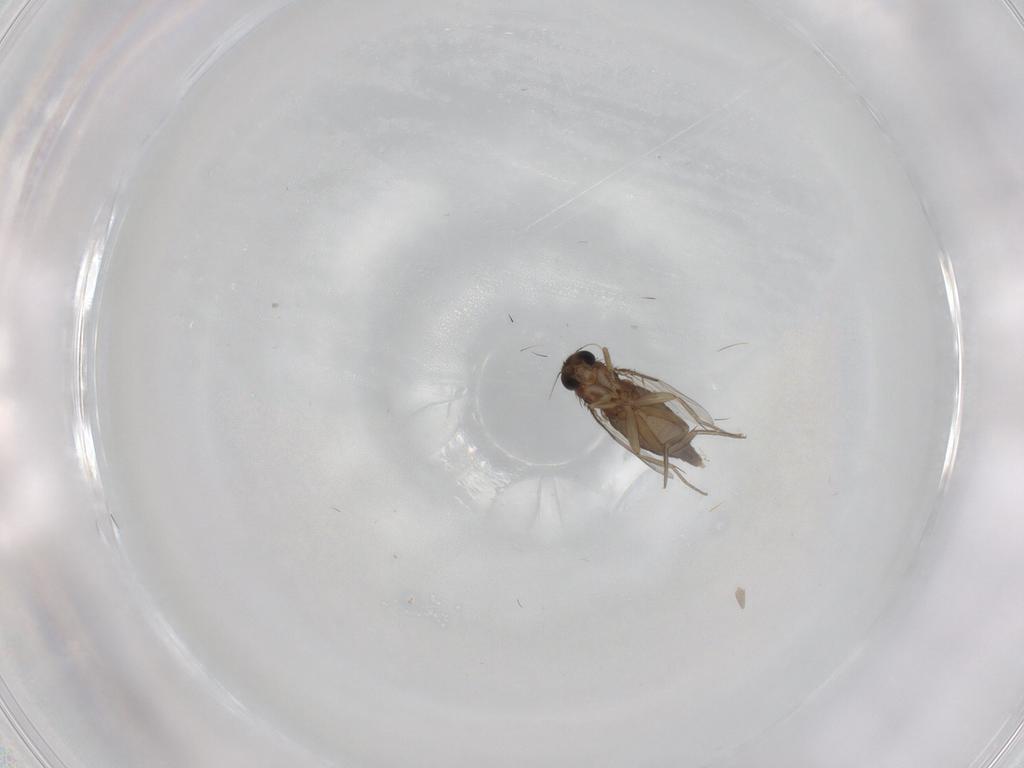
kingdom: Animalia
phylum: Arthropoda
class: Insecta
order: Diptera
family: Phoridae
